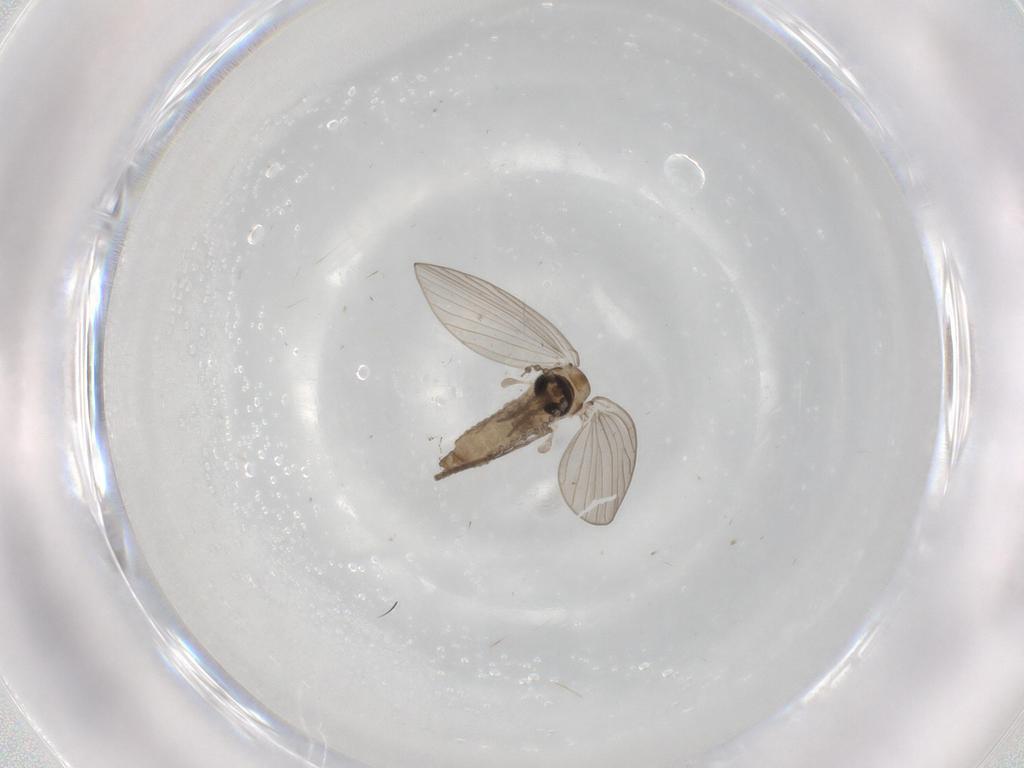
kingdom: Animalia
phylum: Arthropoda
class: Insecta
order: Diptera
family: Psychodidae
